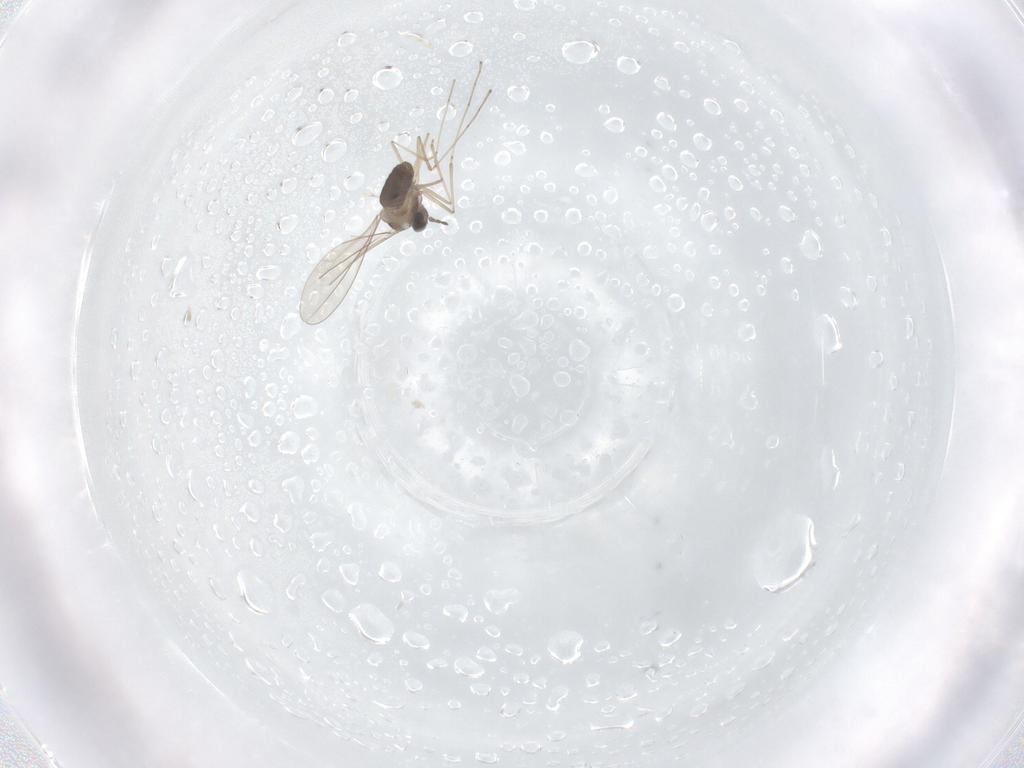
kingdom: Animalia
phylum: Arthropoda
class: Insecta
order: Diptera
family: Cecidomyiidae
